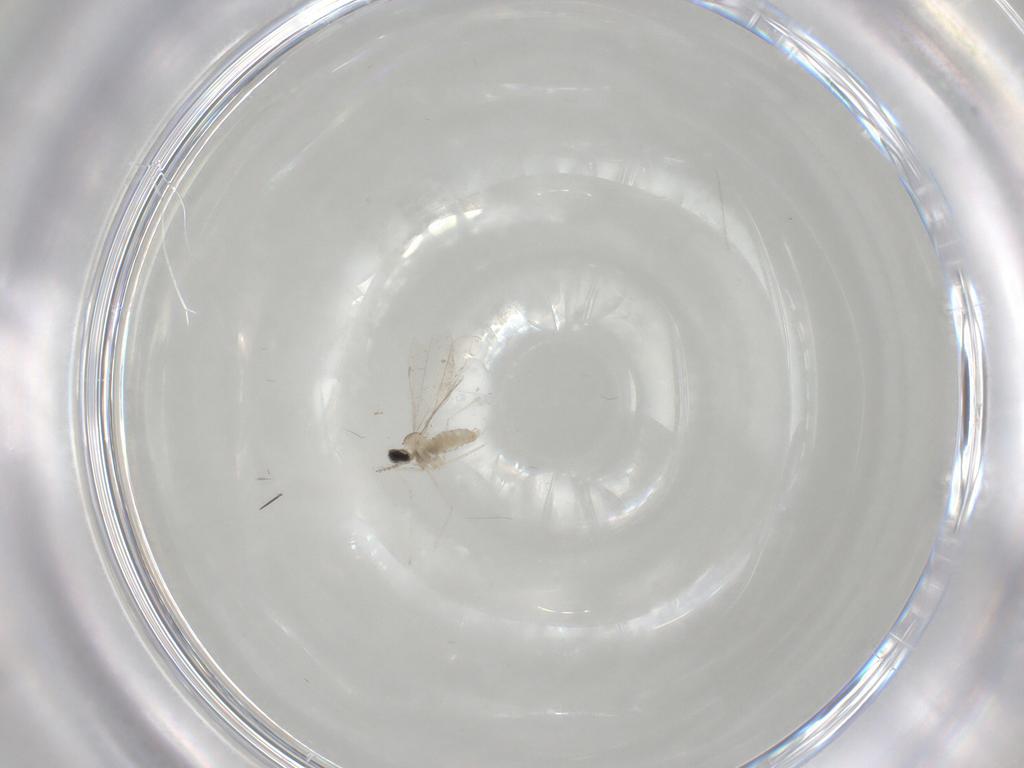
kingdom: Animalia
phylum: Arthropoda
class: Insecta
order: Diptera
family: Cecidomyiidae
